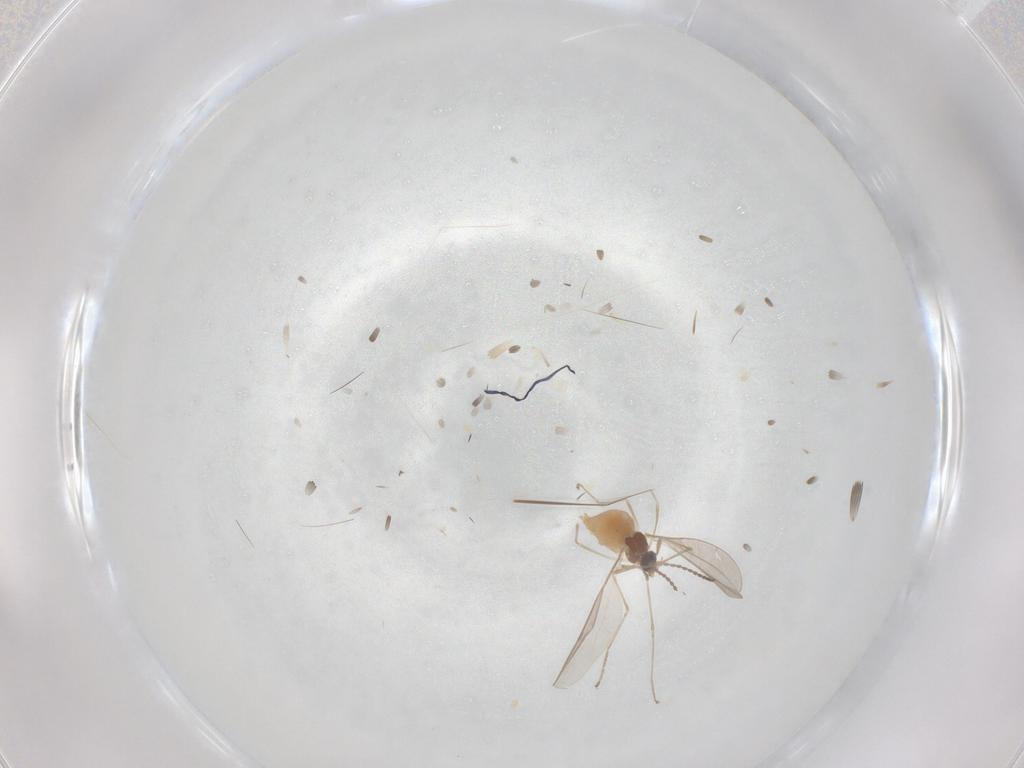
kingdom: Animalia
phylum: Arthropoda
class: Insecta
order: Diptera
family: Cecidomyiidae
